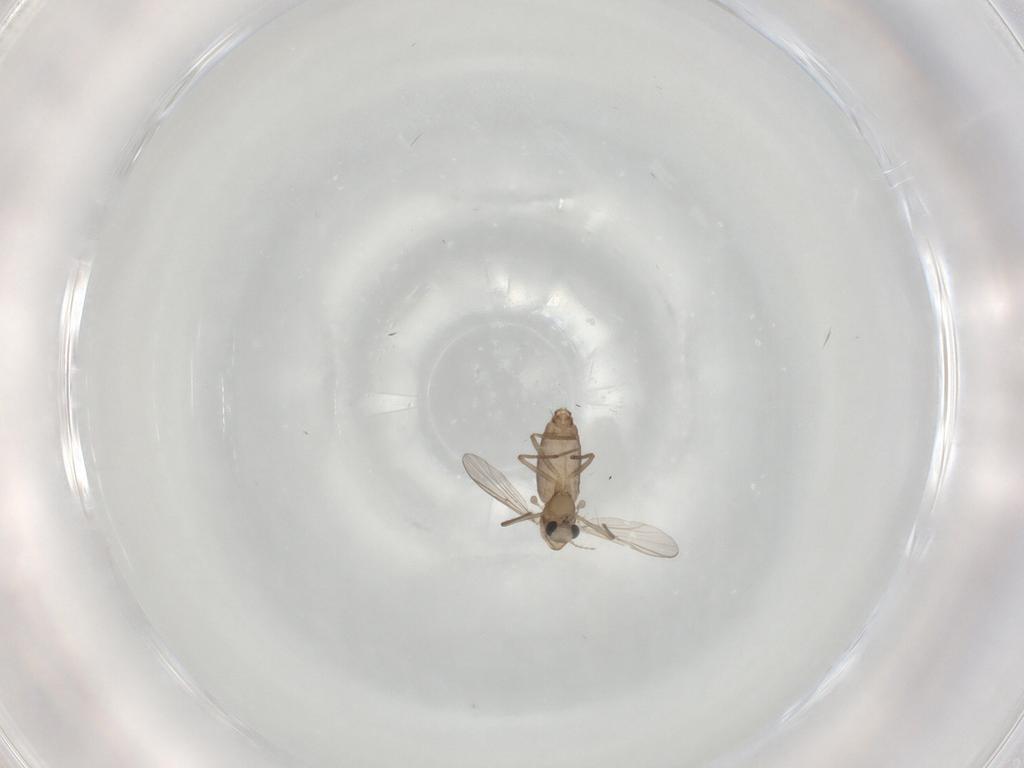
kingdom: Animalia
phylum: Arthropoda
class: Insecta
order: Diptera
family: Chironomidae
